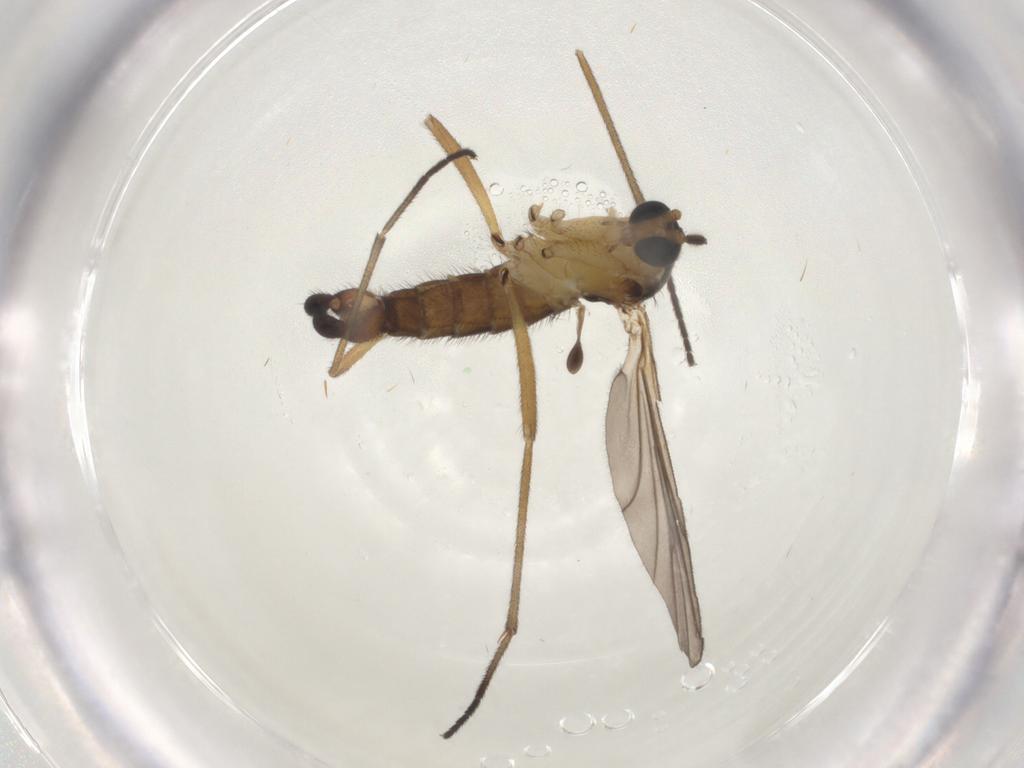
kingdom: Animalia
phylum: Arthropoda
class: Insecta
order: Diptera
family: Sciaridae
